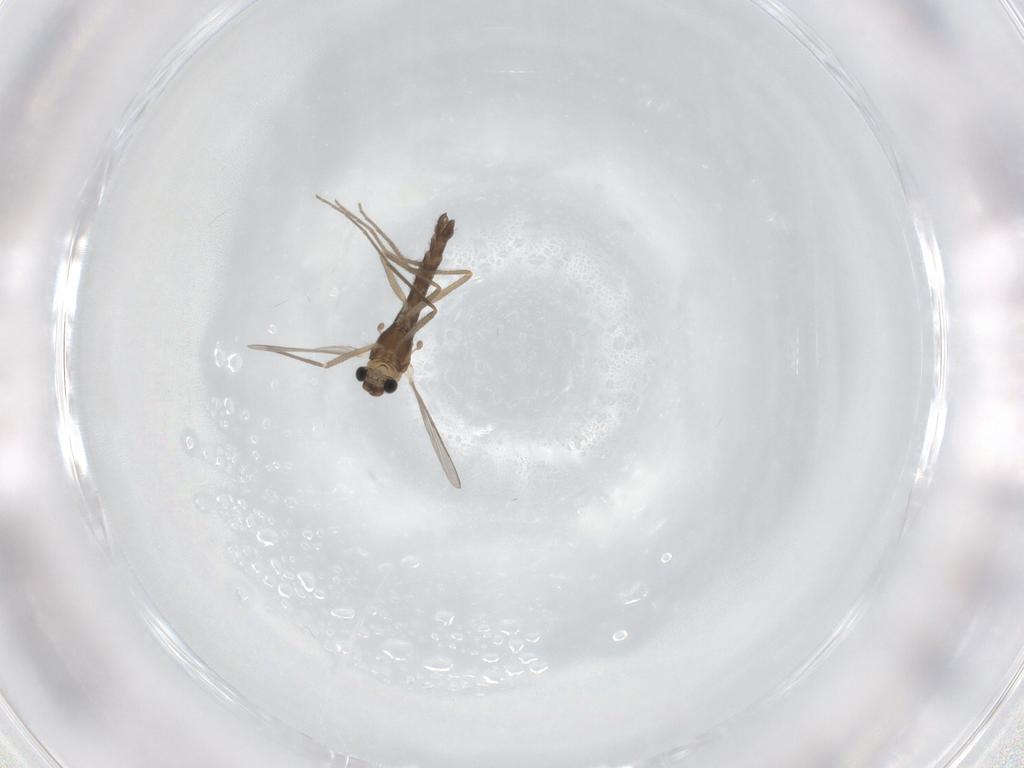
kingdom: Animalia
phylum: Arthropoda
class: Insecta
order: Diptera
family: Chironomidae
